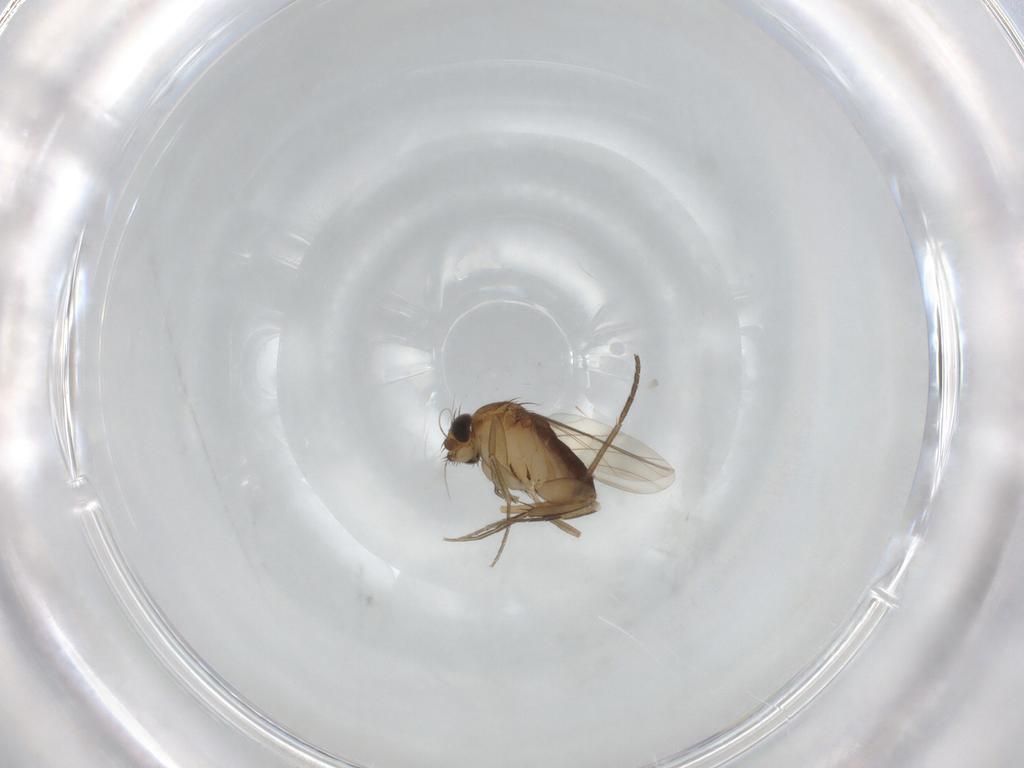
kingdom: Animalia
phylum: Arthropoda
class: Insecta
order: Diptera
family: Phoridae
